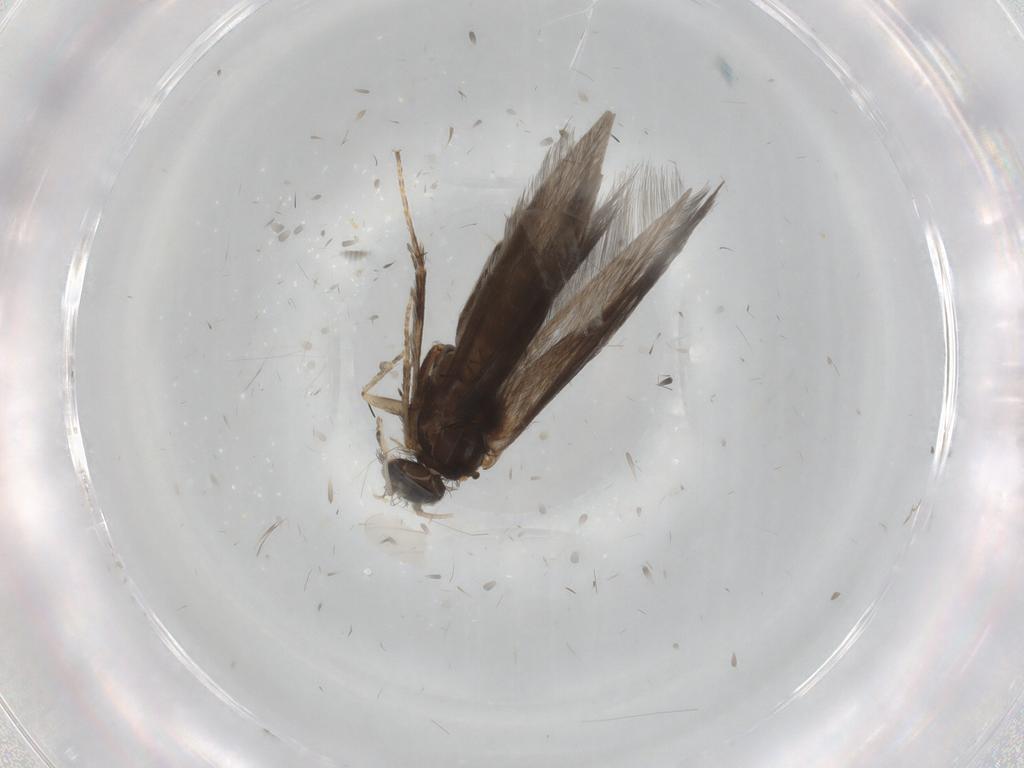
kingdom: Animalia
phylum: Arthropoda
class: Insecta
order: Trichoptera
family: Hydroptilidae
